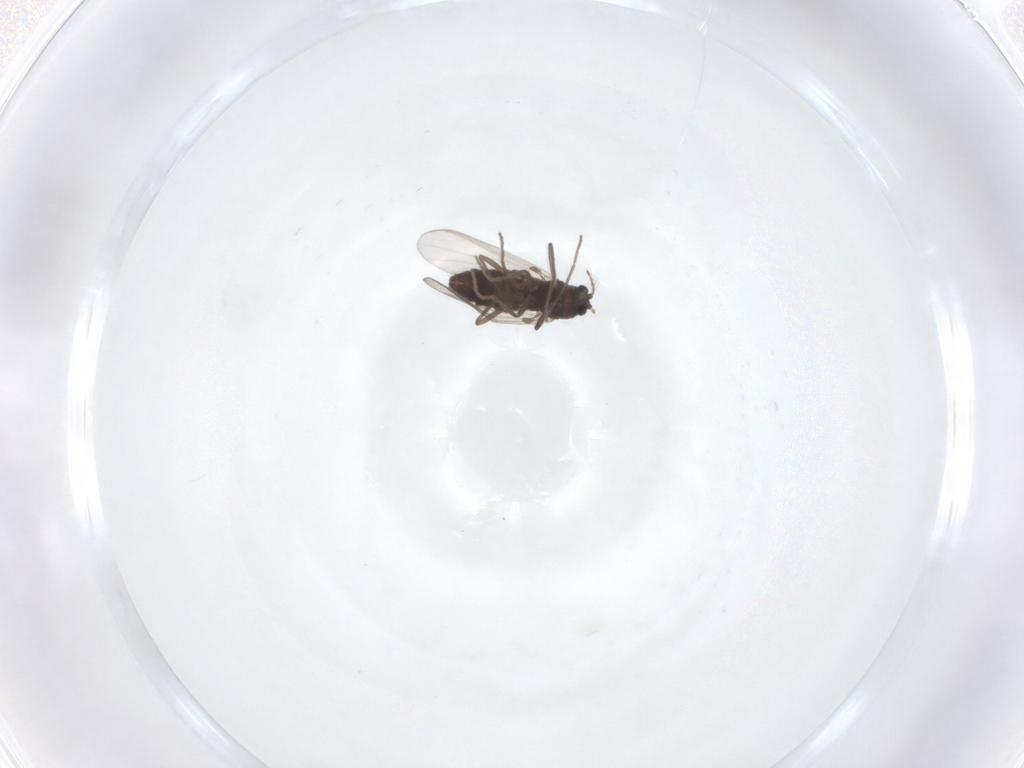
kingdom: Animalia
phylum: Arthropoda
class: Insecta
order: Diptera
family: Chironomidae
